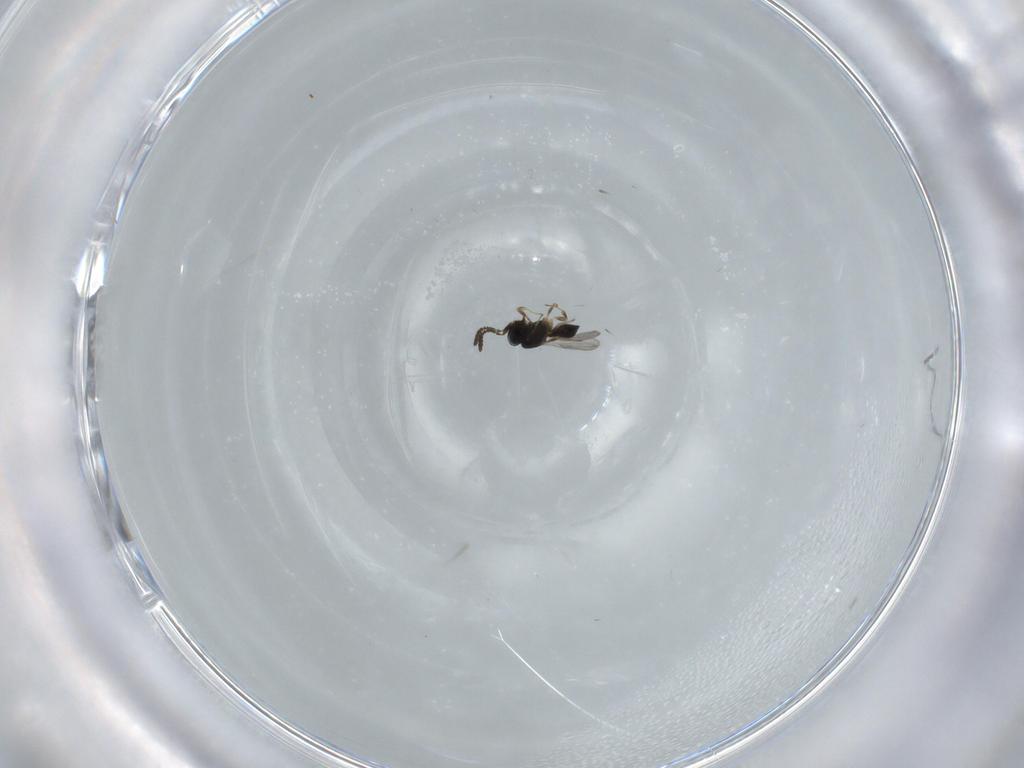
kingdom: Animalia
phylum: Arthropoda
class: Insecta
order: Hymenoptera
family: Scelionidae
